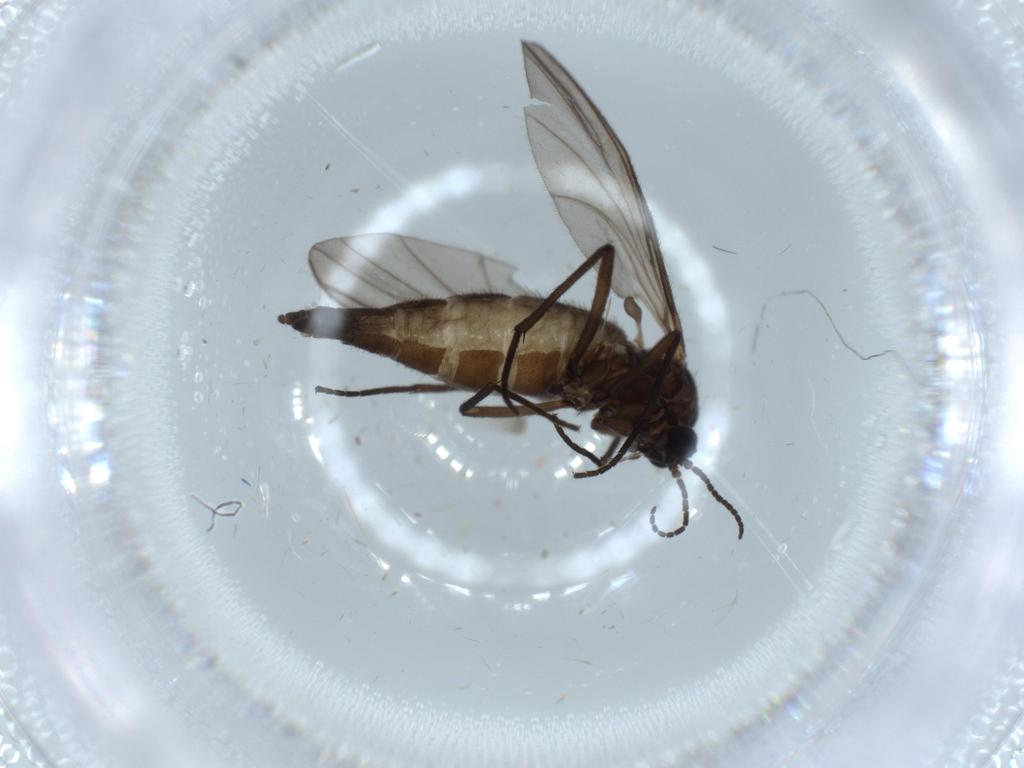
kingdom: Animalia
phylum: Arthropoda
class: Insecta
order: Diptera
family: Sciaridae
